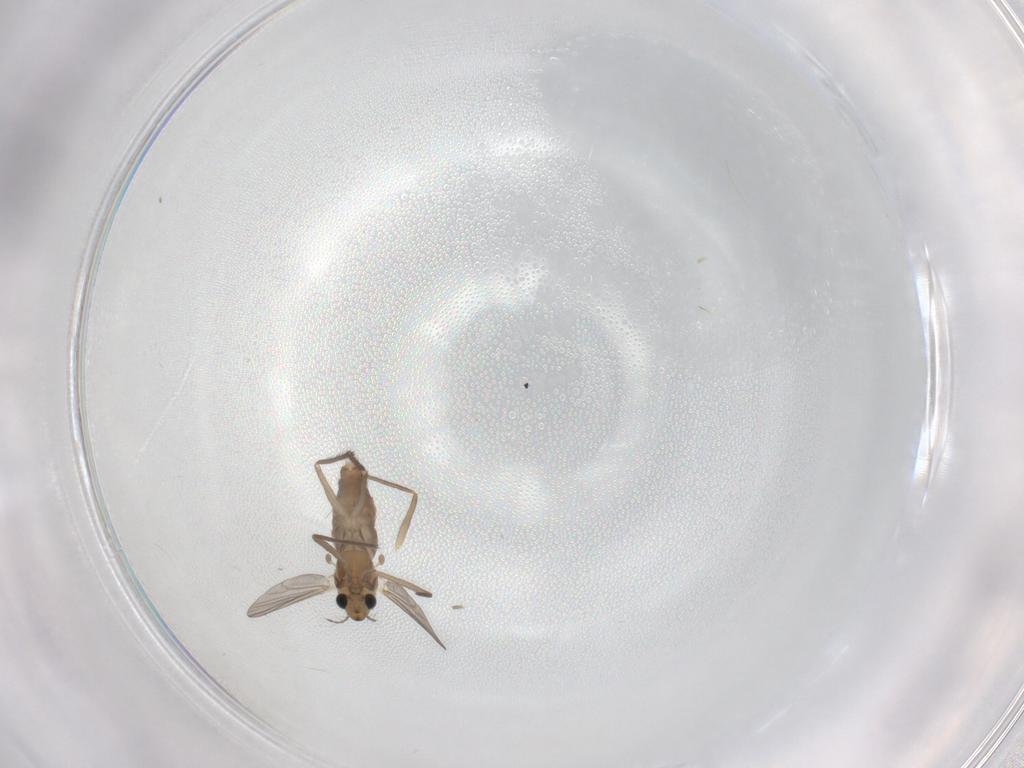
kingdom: Animalia
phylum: Arthropoda
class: Insecta
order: Diptera
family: Chironomidae
